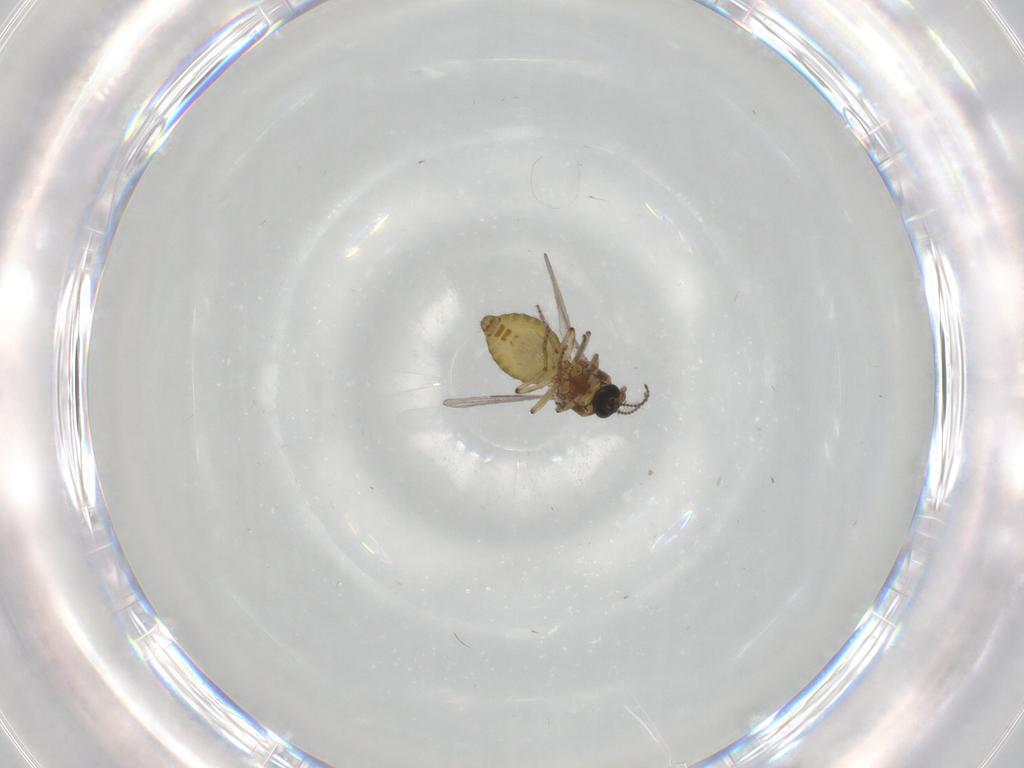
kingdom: Animalia
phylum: Arthropoda
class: Insecta
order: Diptera
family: Ceratopogonidae
